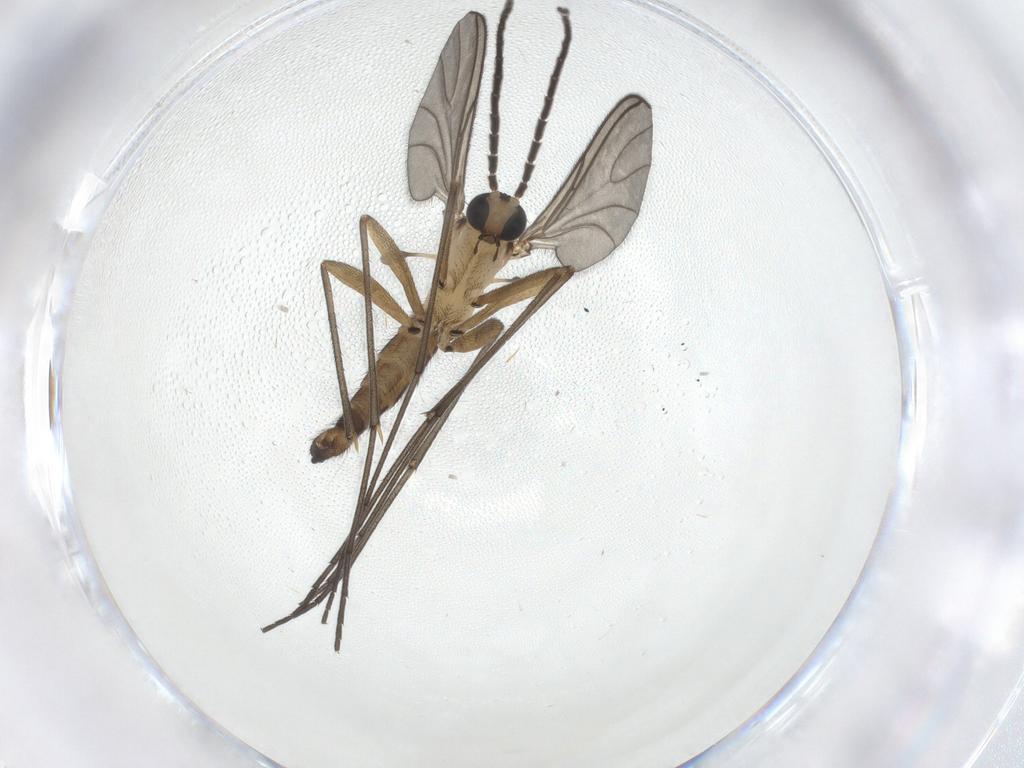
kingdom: Animalia
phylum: Arthropoda
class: Insecta
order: Diptera
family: Sciaridae
